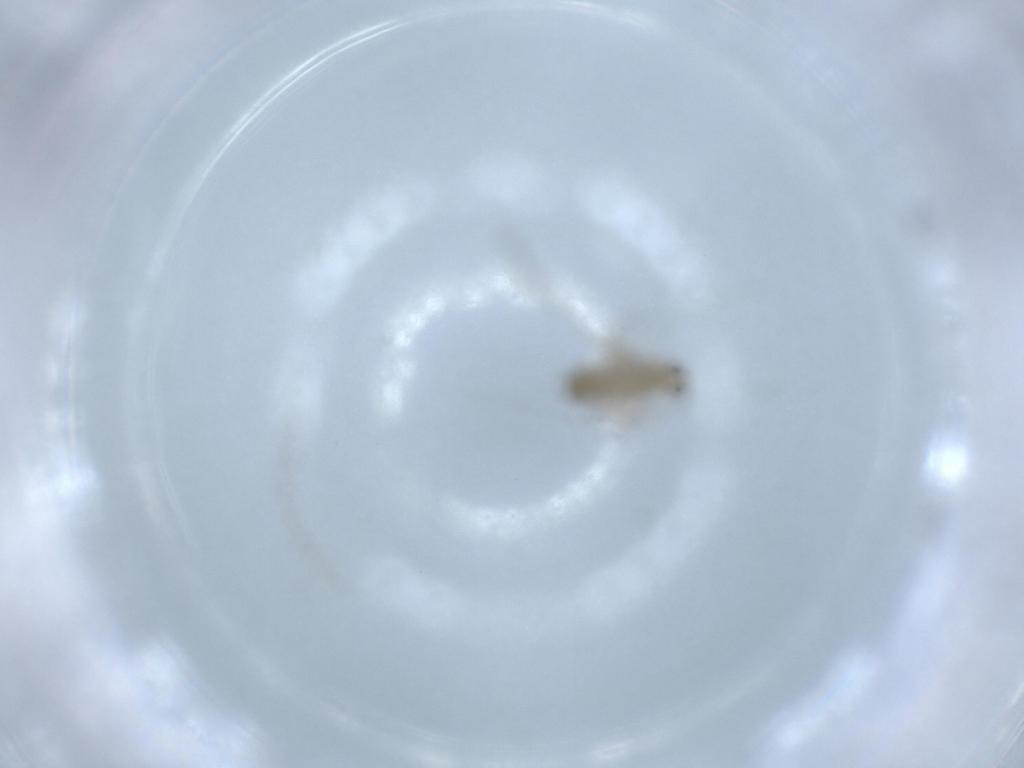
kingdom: Animalia
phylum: Arthropoda
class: Insecta
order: Diptera
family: Chironomidae
